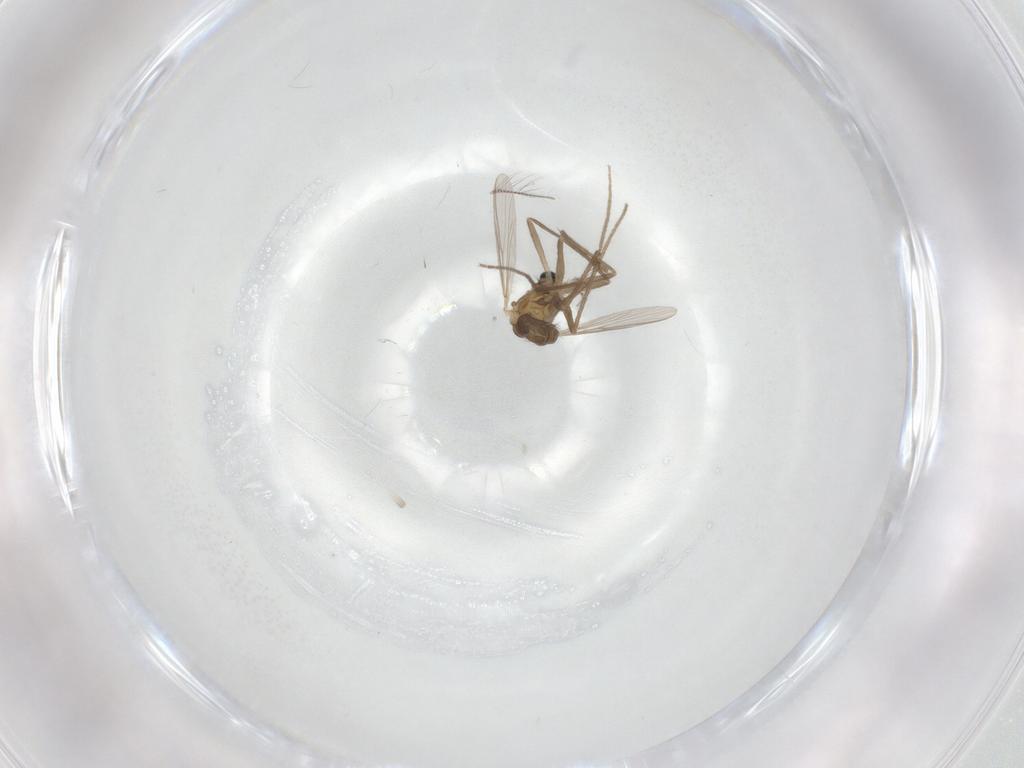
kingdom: Animalia
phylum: Arthropoda
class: Insecta
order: Diptera
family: Chironomidae
